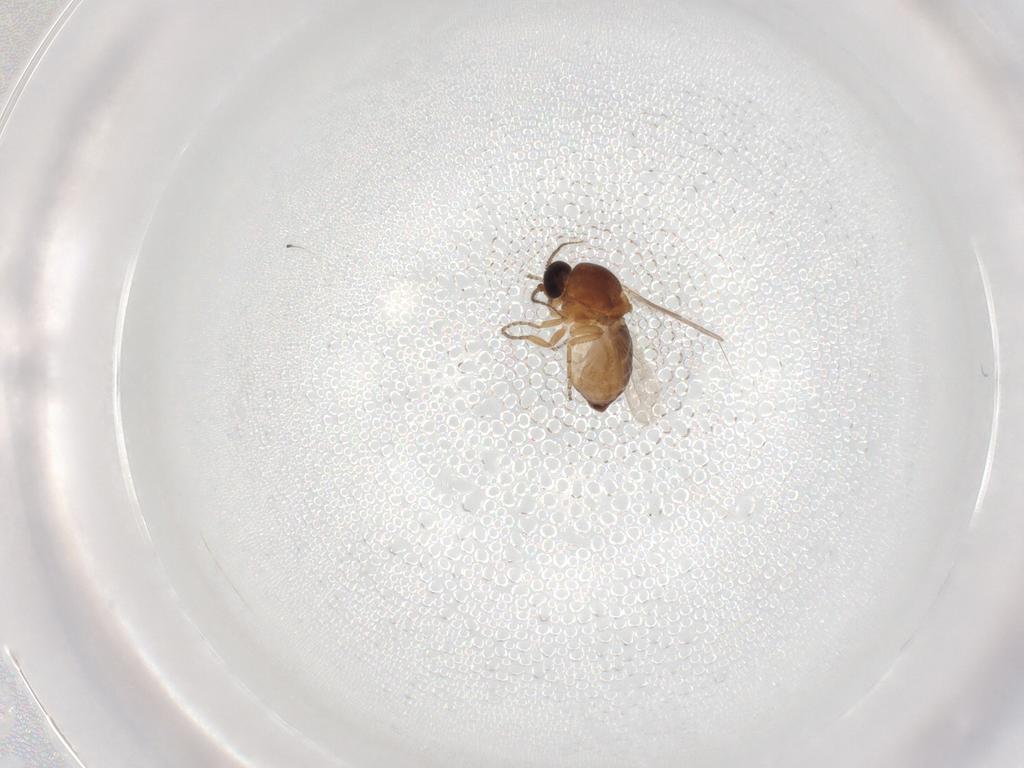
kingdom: Animalia
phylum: Arthropoda
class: Insecta
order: Diptera
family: Ceratopogonidae
